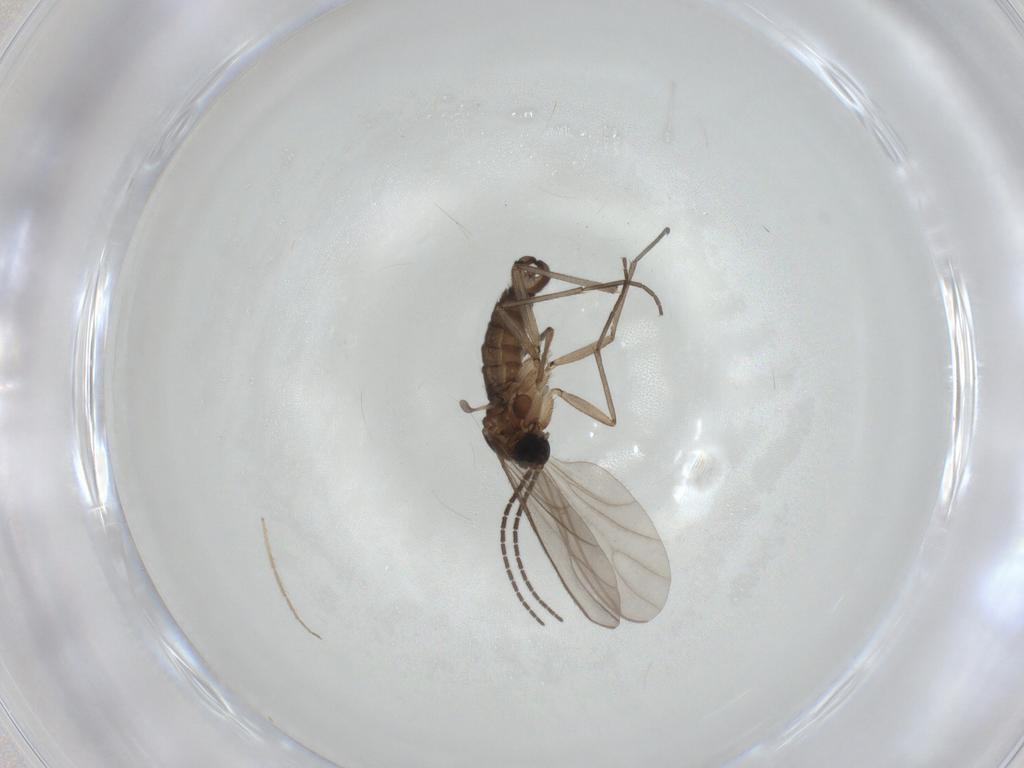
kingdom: Animalia
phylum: Arthropoda
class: Insecta
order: Diptera
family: Sciaridae
